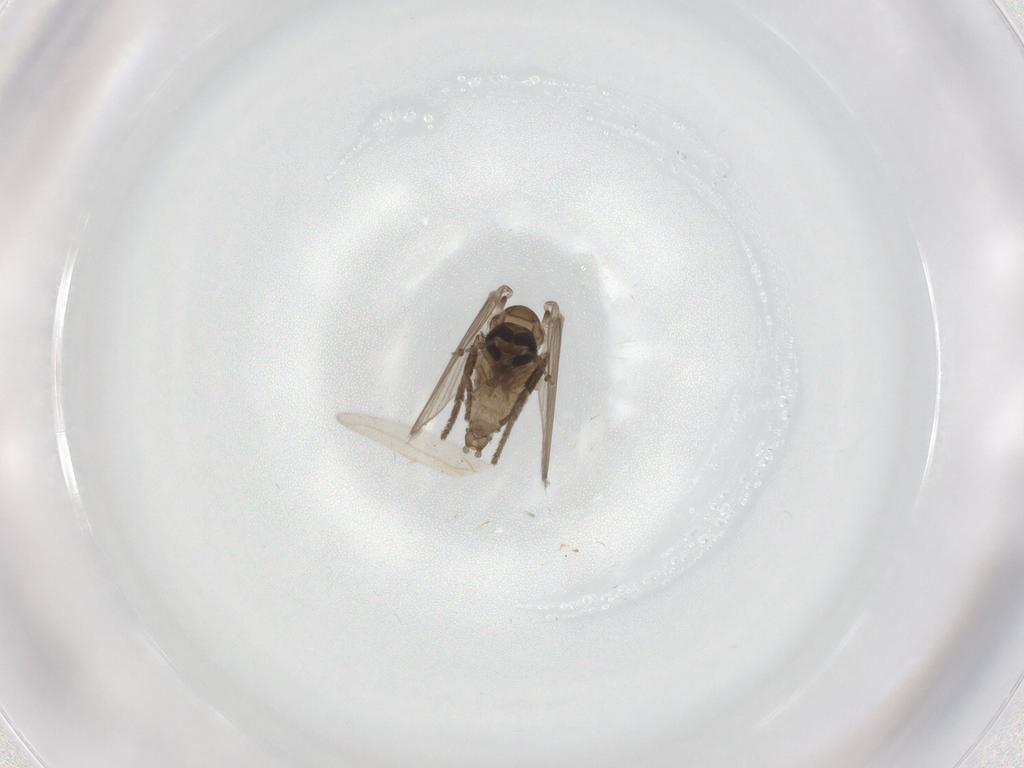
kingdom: Animalia
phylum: Arthropoda
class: Insecta
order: Diptera
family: Psychodidae
